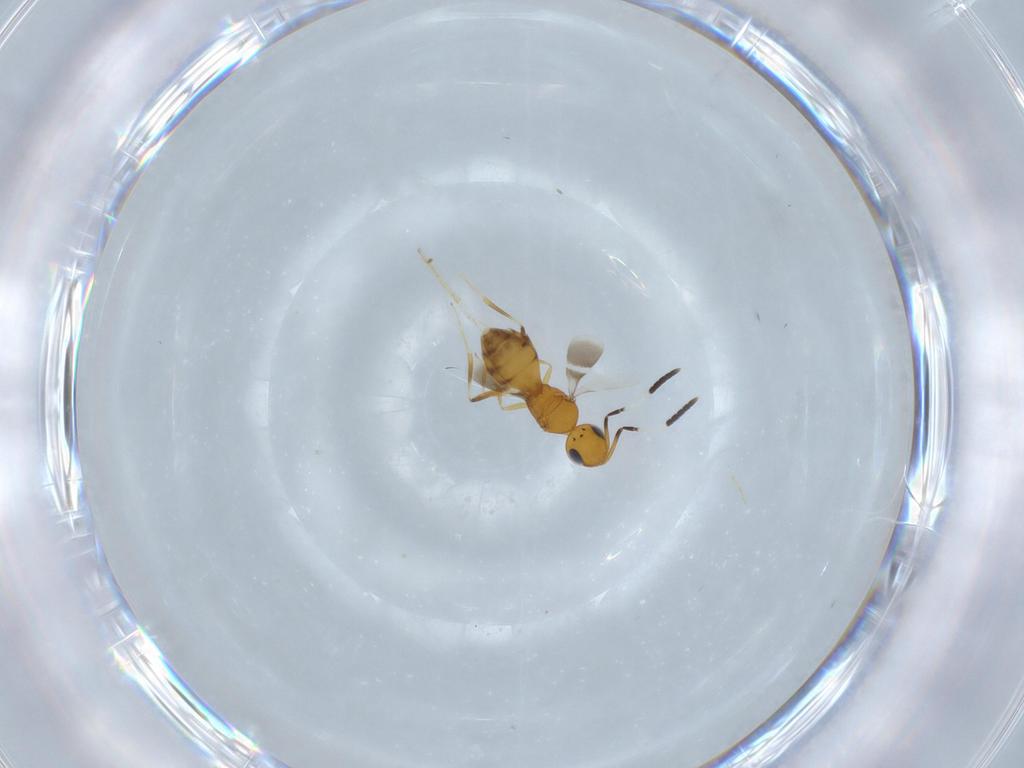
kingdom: Animalia
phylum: Arthropoda
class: Insecta
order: Hymenoptera
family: Scelionidae
